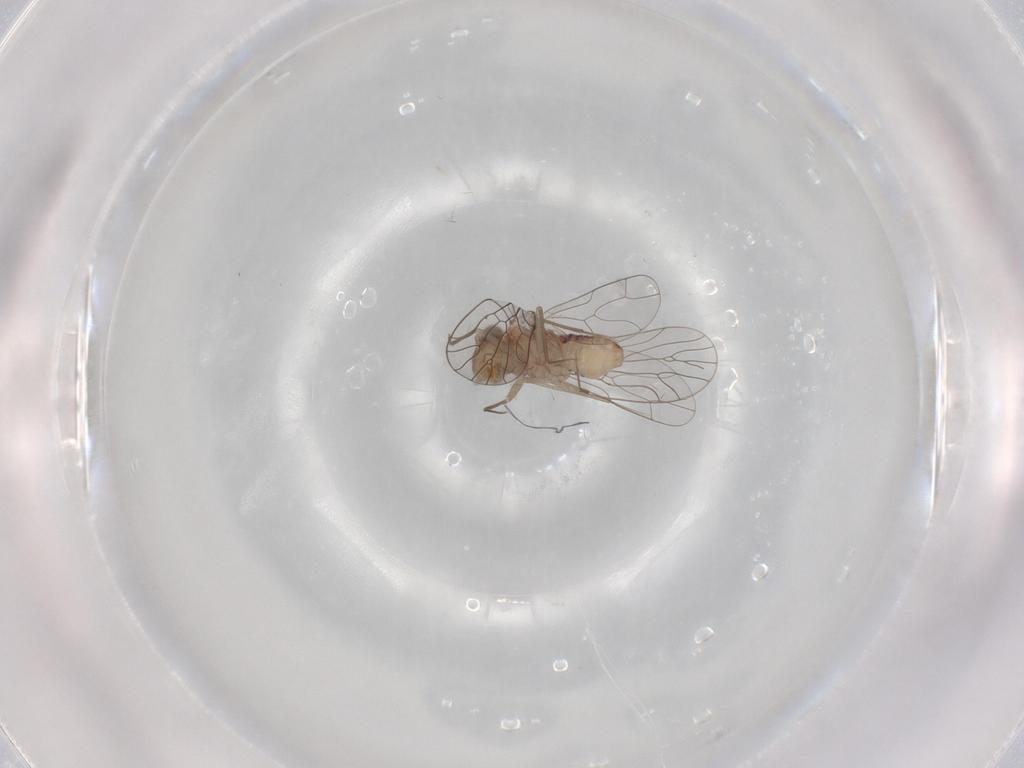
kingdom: Animalia
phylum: Arthropoda
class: Insecta
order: Psocodea
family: Amphientomidae
